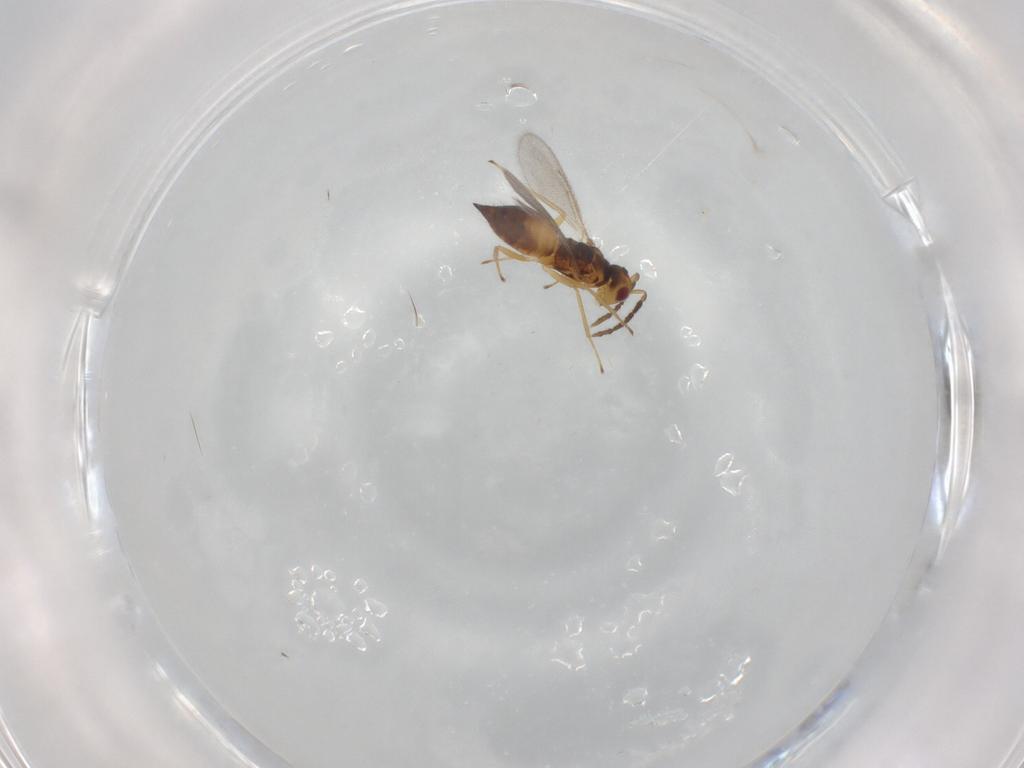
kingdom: Animalia
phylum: Arthropoda
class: Insecta
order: Hymenoptera
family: Eulophidae
